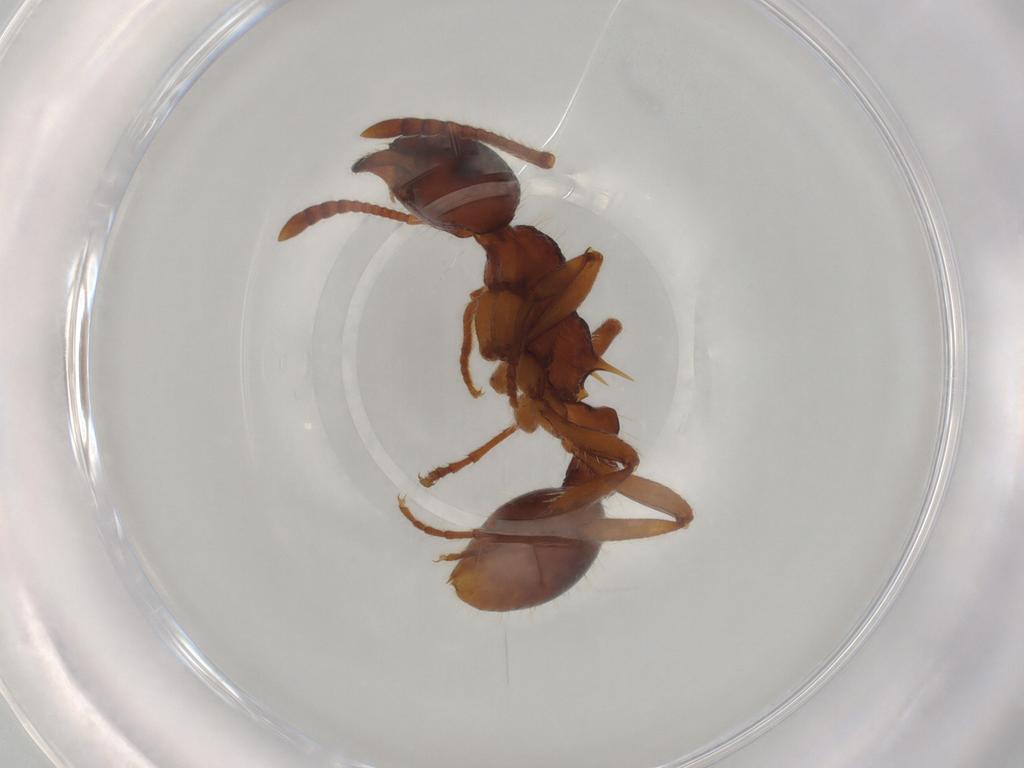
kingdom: Animalia
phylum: Arthropoda
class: Insecta
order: Hymenoptera
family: Formicidae
